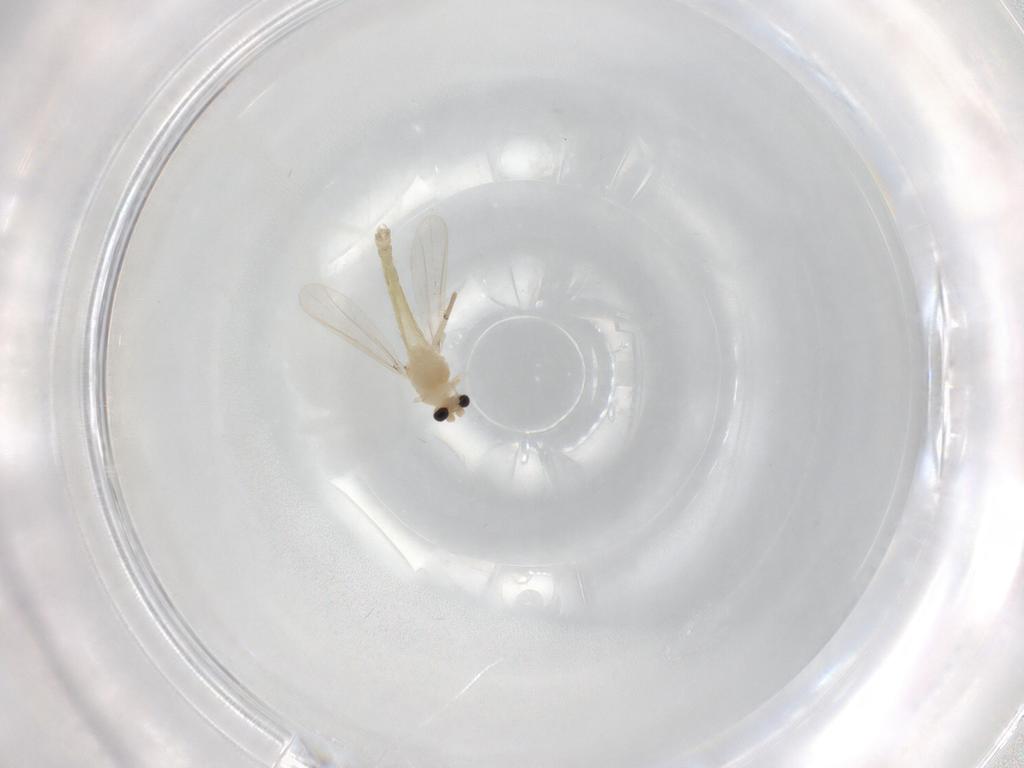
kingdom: Animalia
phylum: Arthropoda
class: Insecta
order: Diptera
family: Chironomidae
